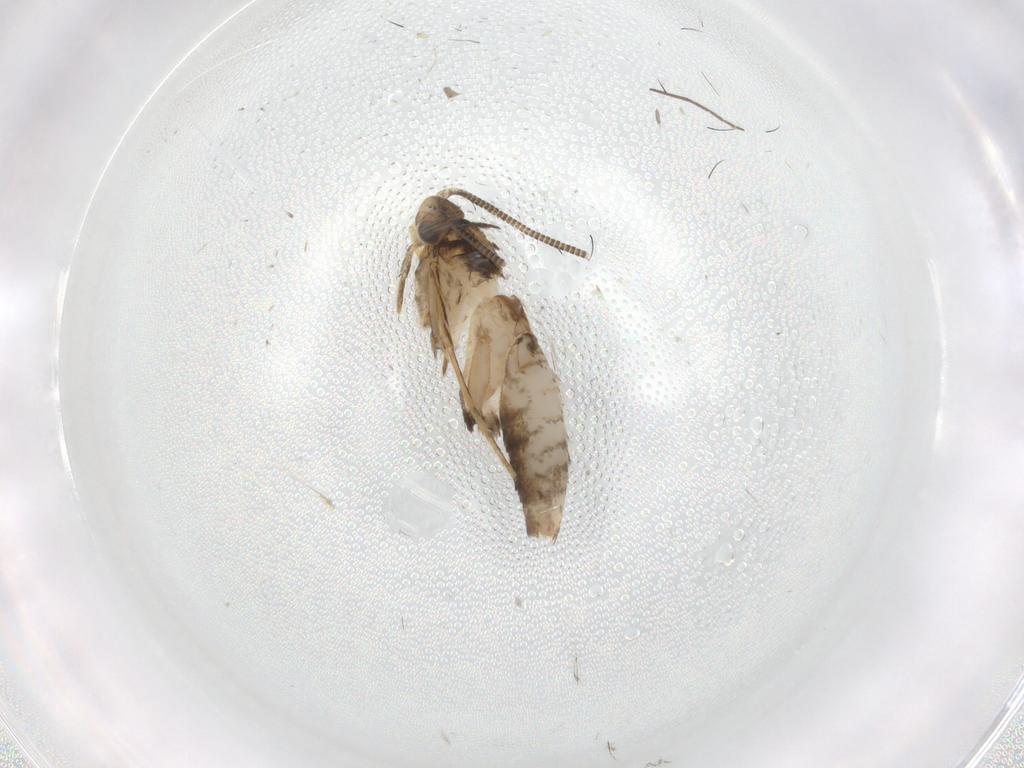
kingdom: Animalia
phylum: Arthropoda
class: Insecta
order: Lepidoptera
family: Tineidae
